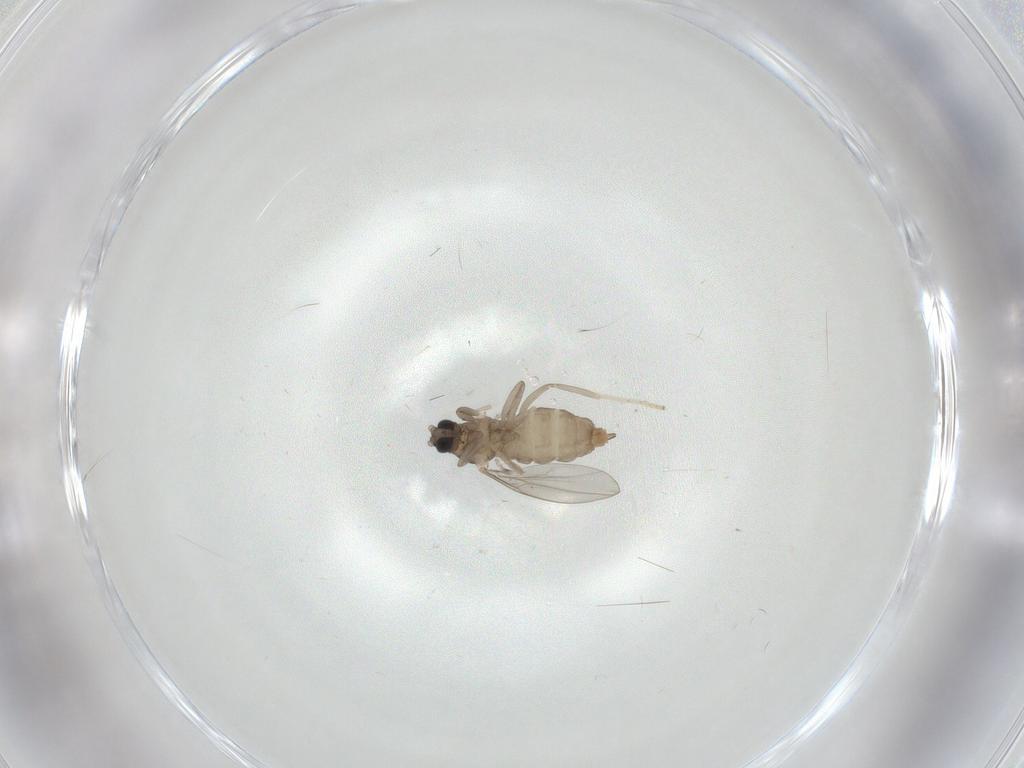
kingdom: Animalia
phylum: Arthropoda
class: Insecta
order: Diptera
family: Cecidomyiidae
